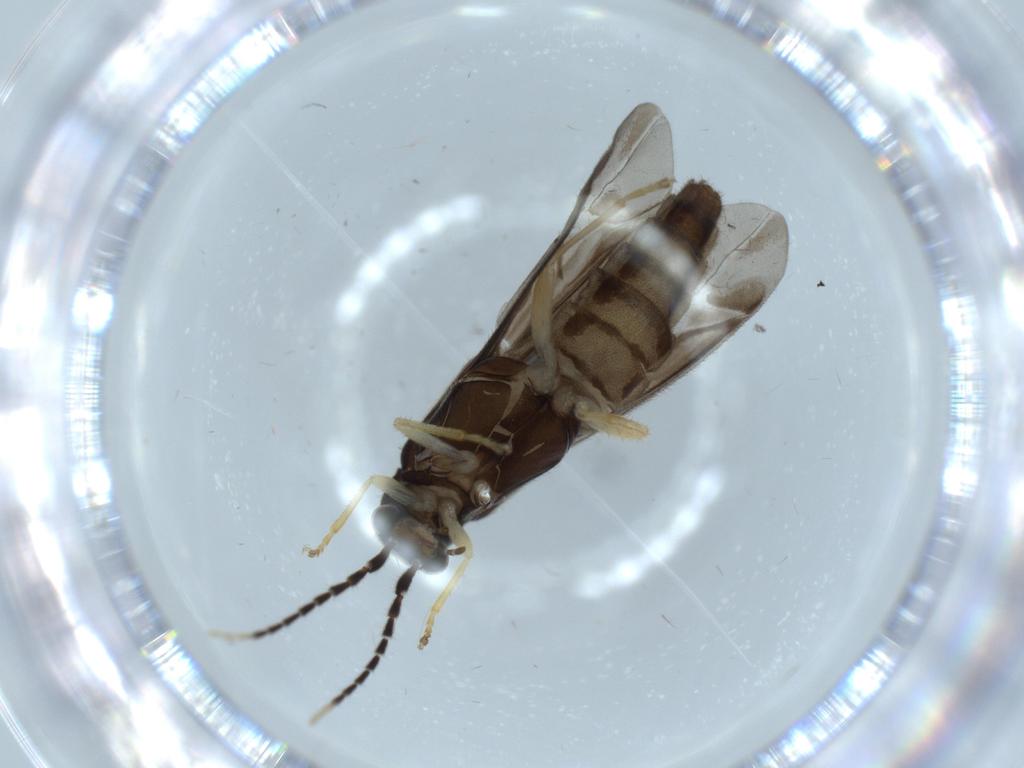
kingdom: Animalia
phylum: Arthropoda
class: Insecta
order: Coleoptera
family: Cantharidae
